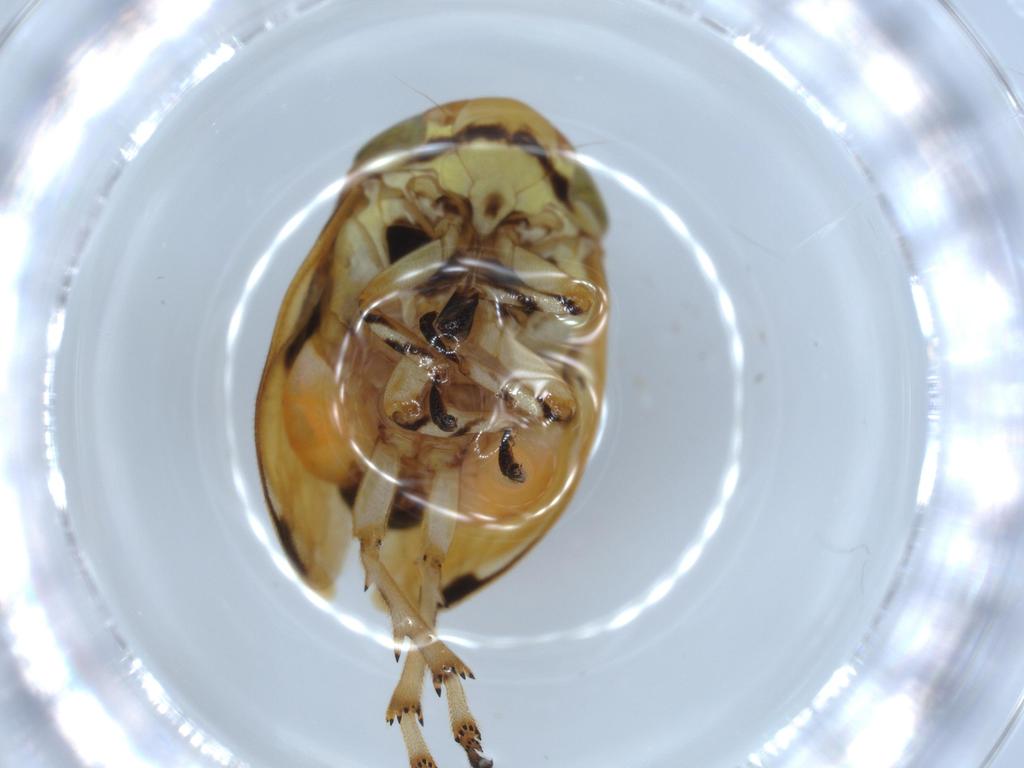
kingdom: Animalia
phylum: Arthropoda
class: Insecta
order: Hemiptera
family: Clastopteridae
